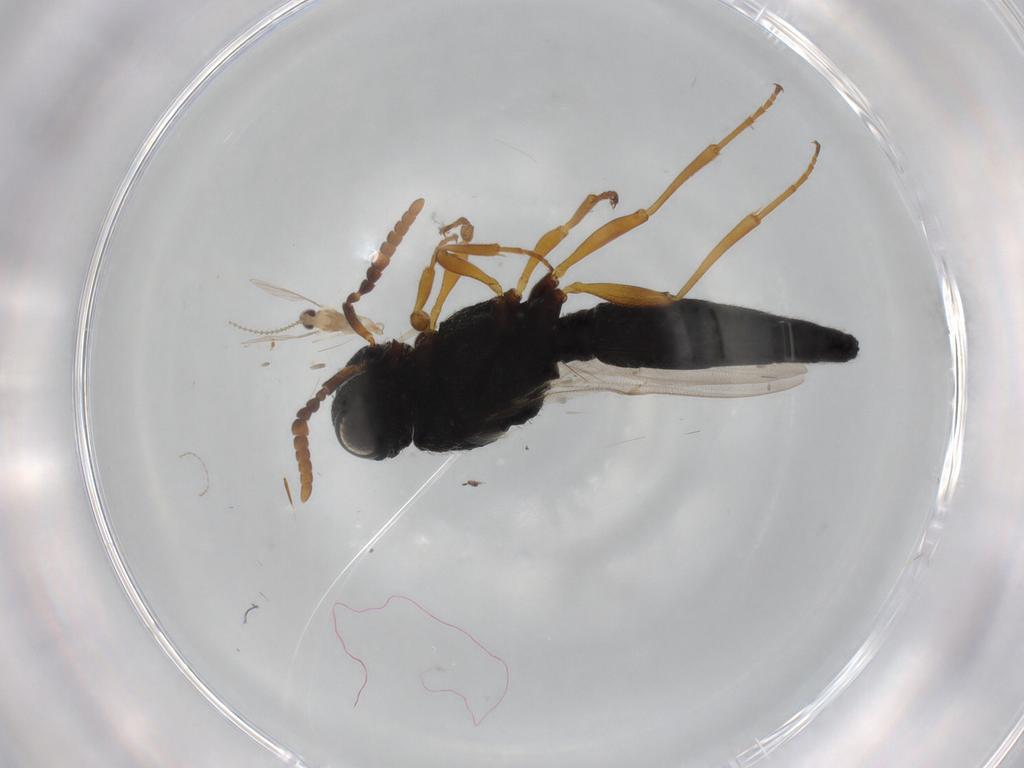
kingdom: Animalia
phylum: Arthropoda
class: Insecta
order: Hymenoptera
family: Scelionidae
